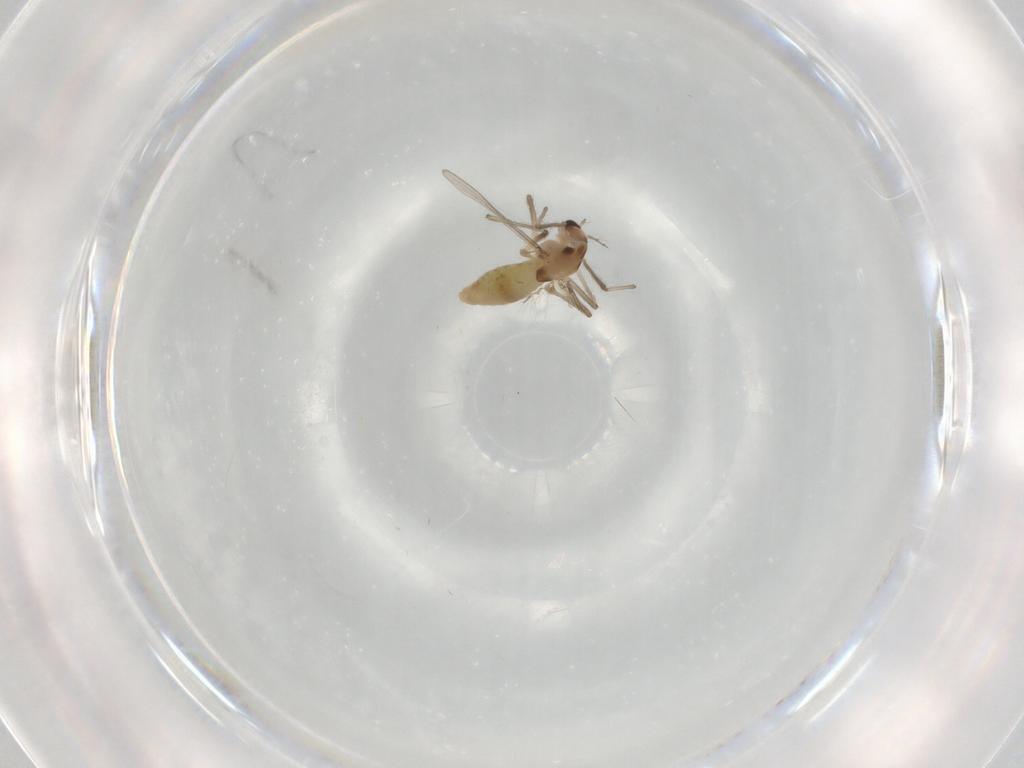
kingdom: Animalia
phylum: Arthropoda
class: Insecta
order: Diptera
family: Chironomidae
